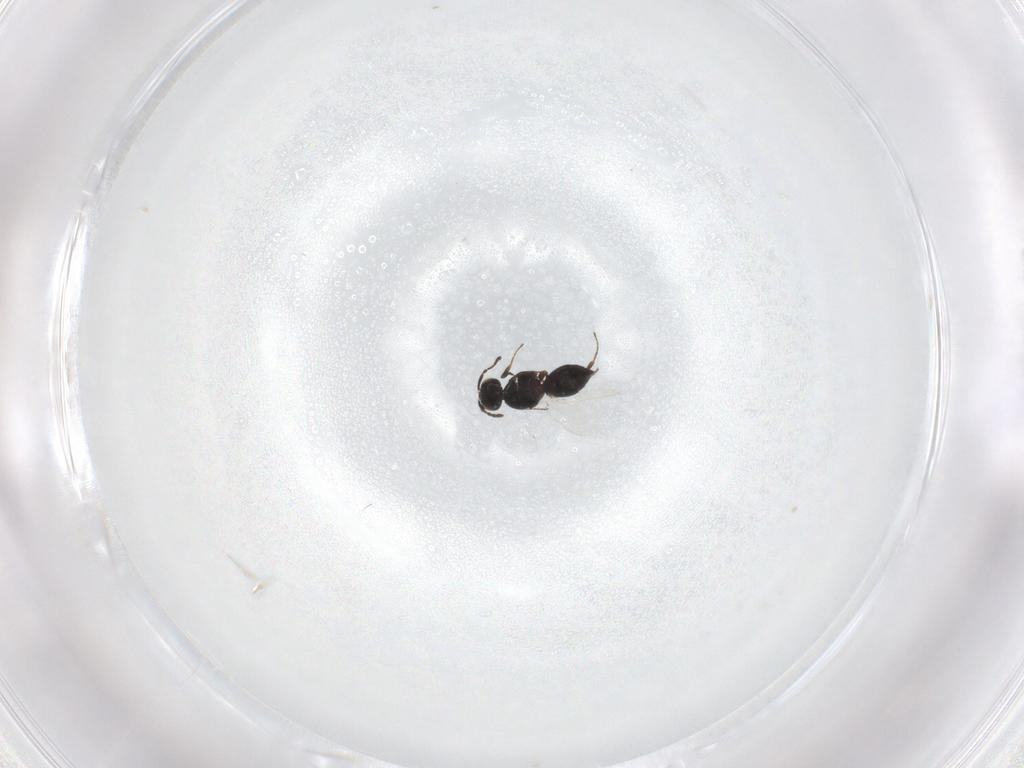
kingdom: Animalia
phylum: Arthropoda
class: Insecta
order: Hymenoptera
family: Platygastridae
